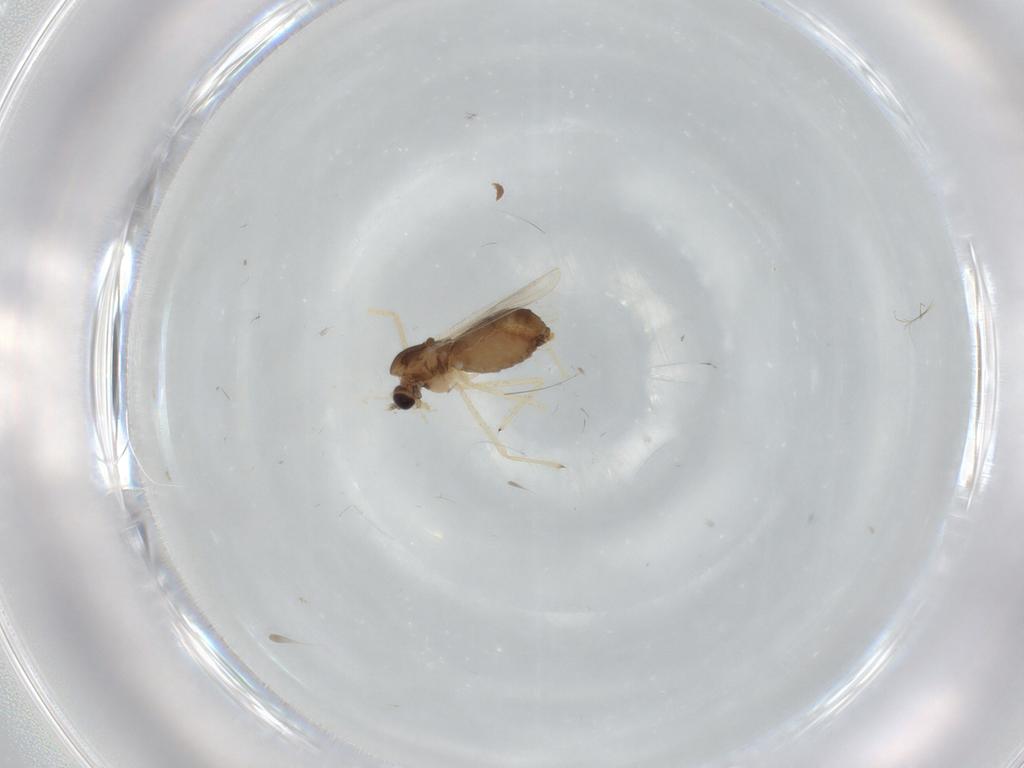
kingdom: Animalia
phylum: Arthropoda
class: Insecta
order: Diptera
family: Chironomidae
